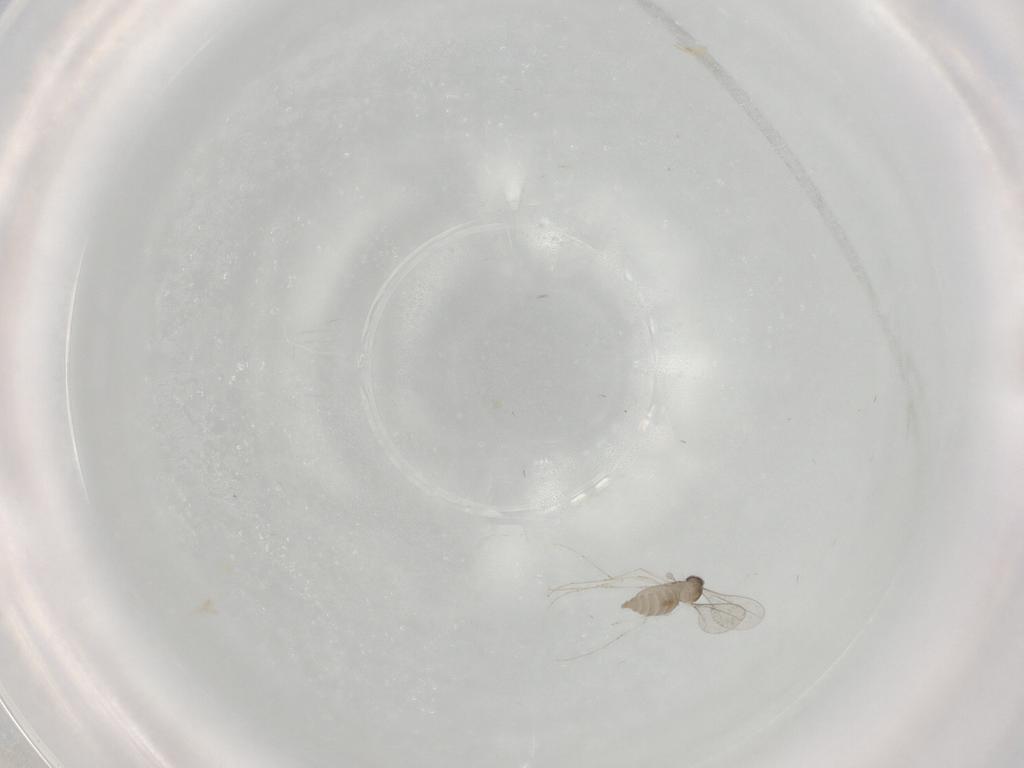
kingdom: Animalia
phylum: Arthropoda
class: Insecta
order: Diptera
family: Cecidomyiidae
